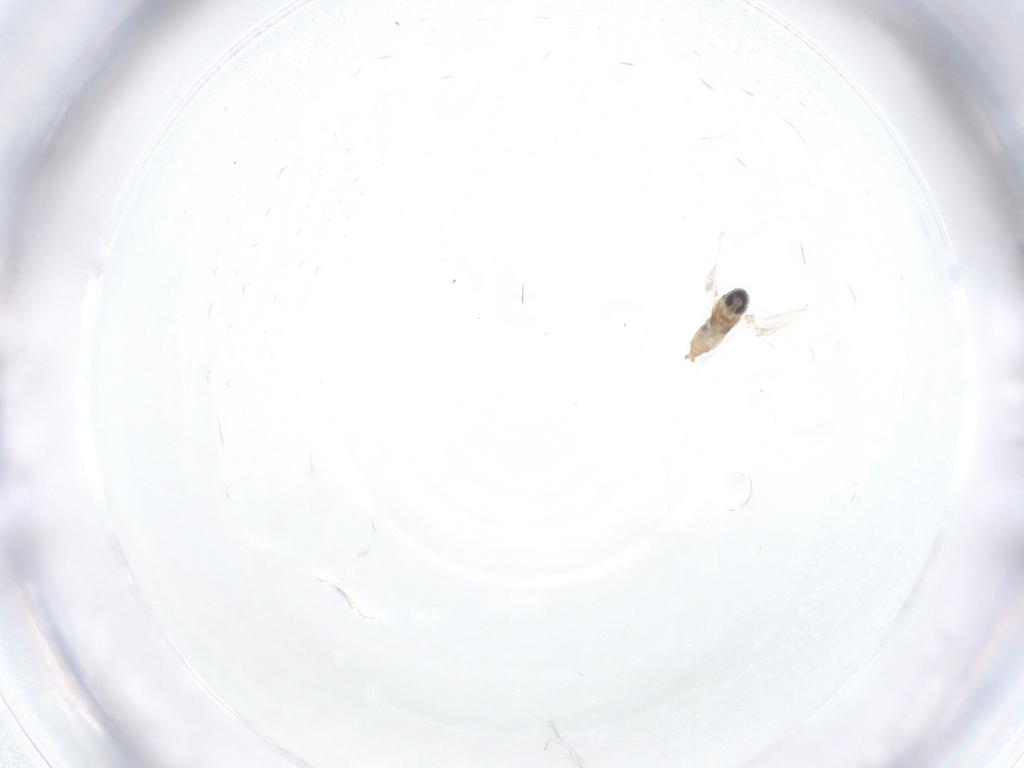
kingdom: Animalia
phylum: Arthropoda
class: Insecta
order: Diptera
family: Cecidomyiidae
